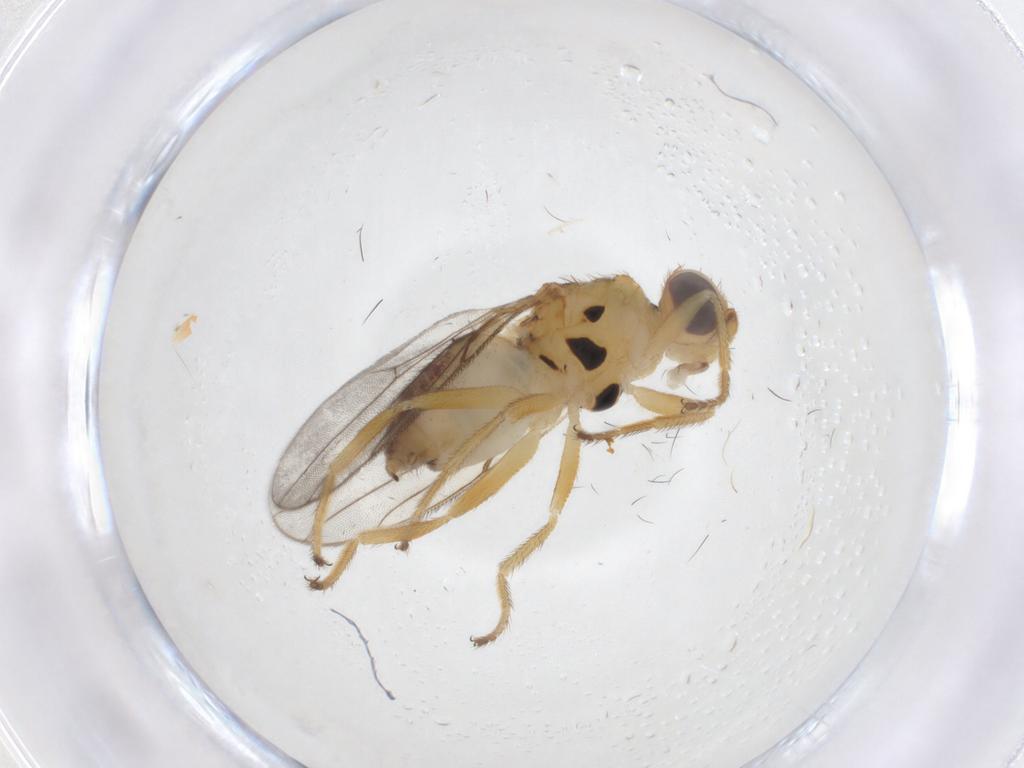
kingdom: Animalia
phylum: Arthropoda
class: Insecta
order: Diptera
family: Chloropidae
